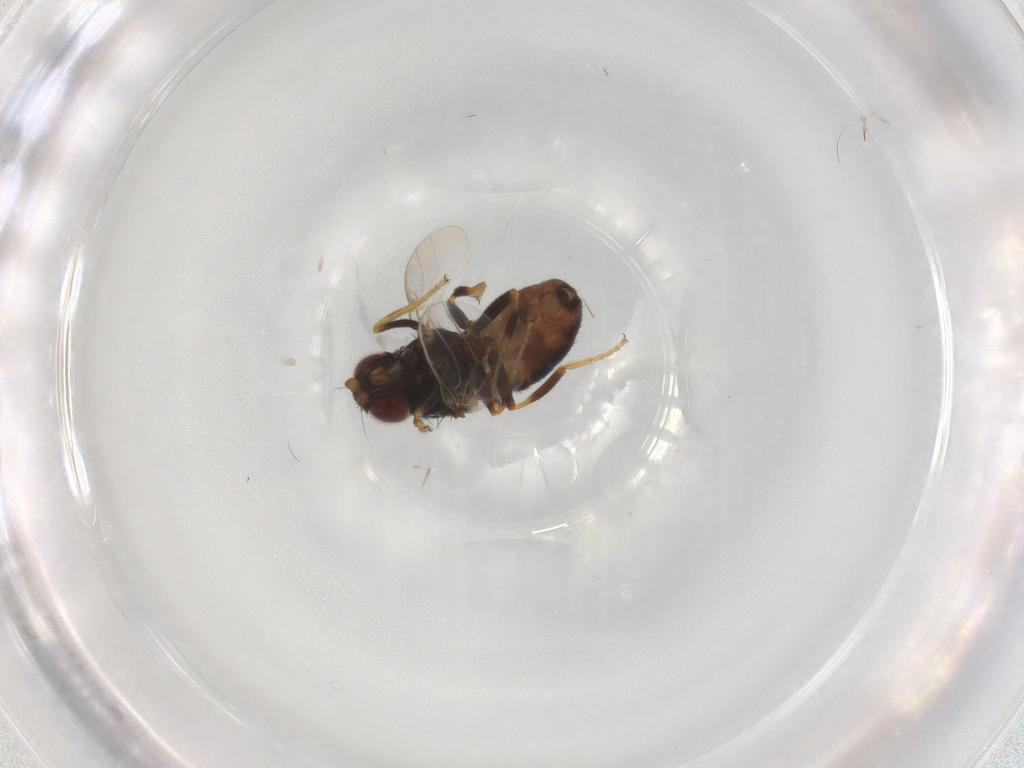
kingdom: Animalia
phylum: Arthropoda
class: Insecta
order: Diptera
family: Chloropidae
